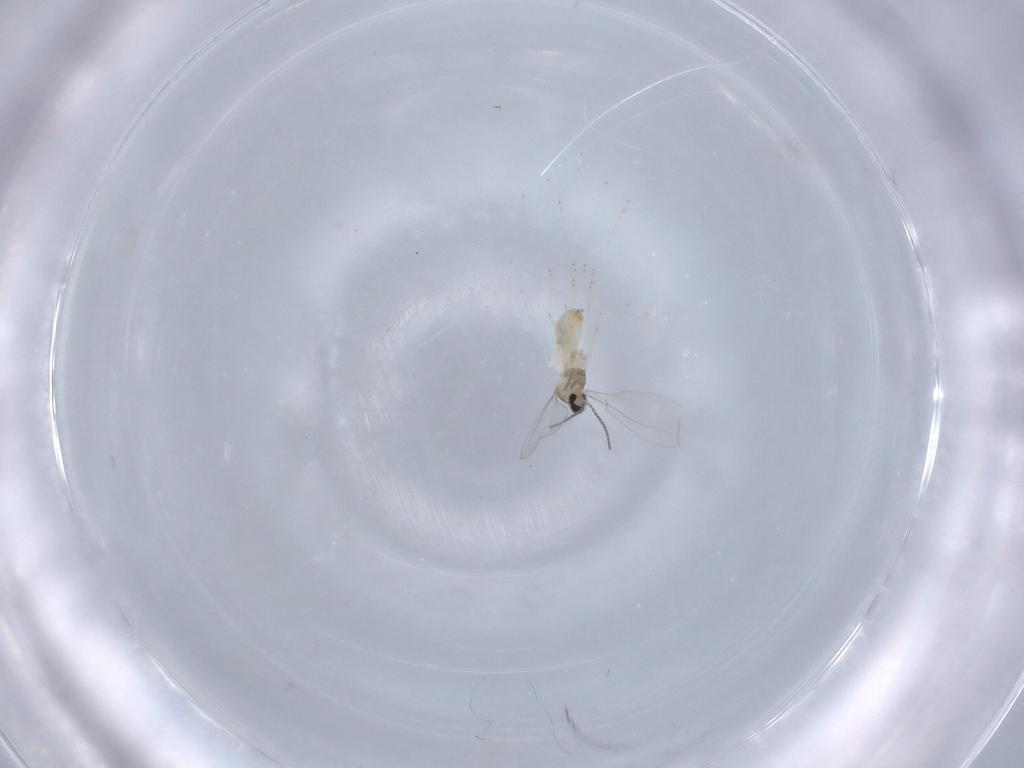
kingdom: Animalia
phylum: Arthropoda
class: Insecta
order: Diptera
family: Cecidomyiidae
